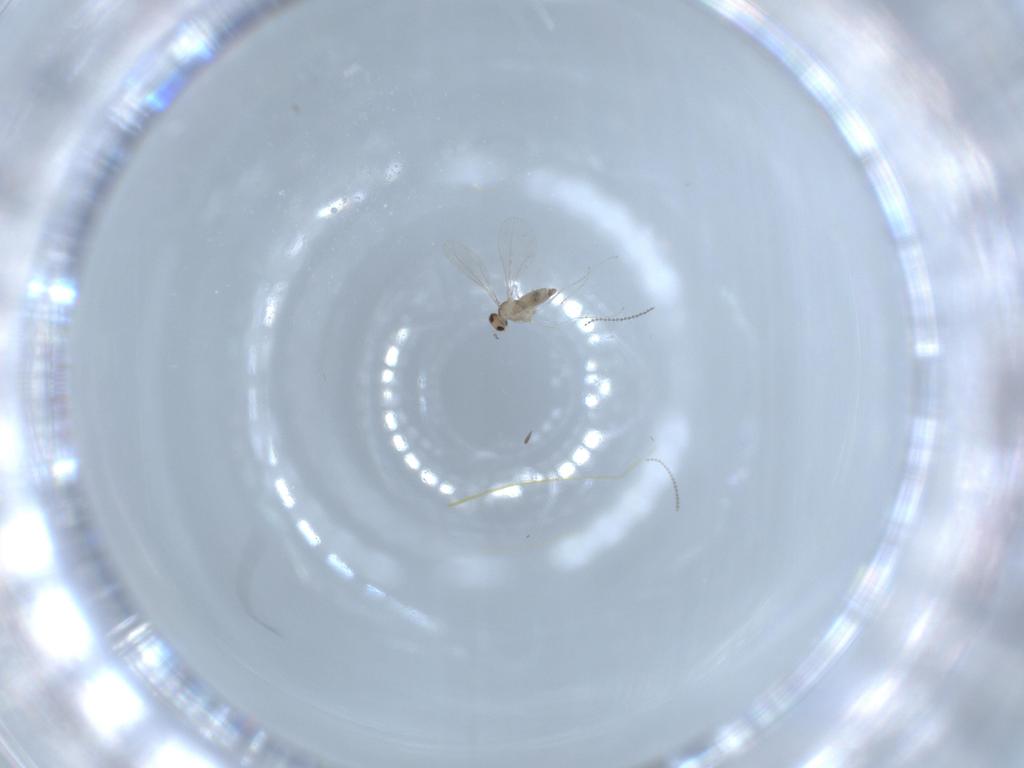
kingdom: Animalia
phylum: Arthropoda
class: Insecta
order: Diptera
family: Cecidomyiidae
